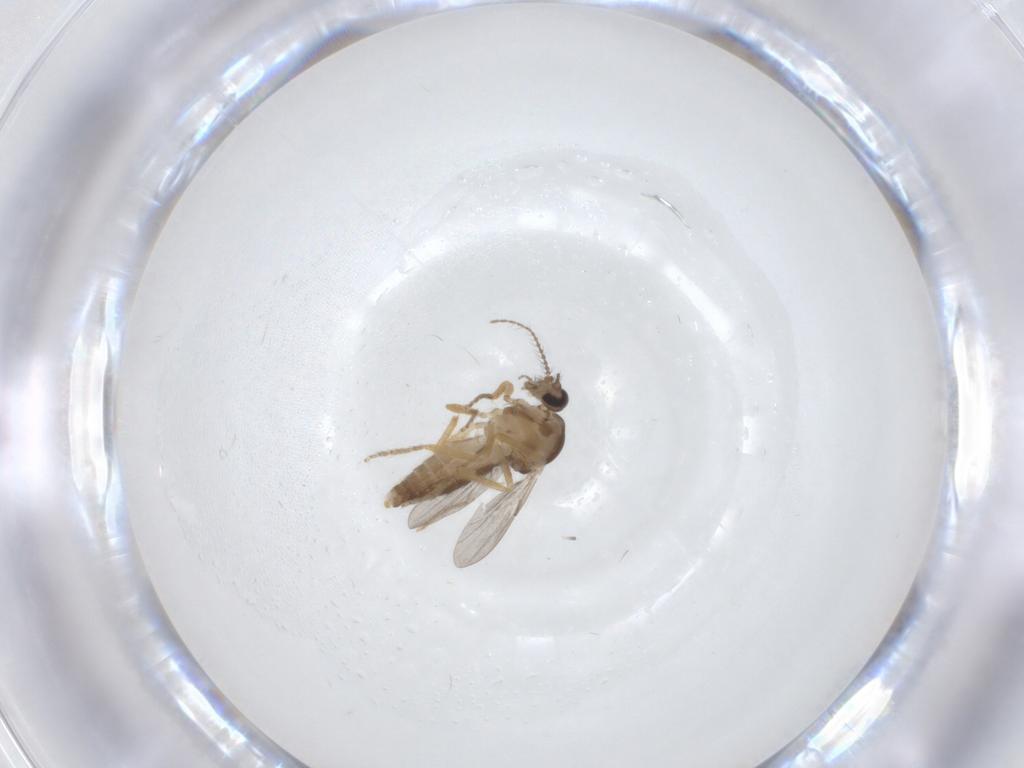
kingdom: Animalia
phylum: Arthropoda
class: Insecta
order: Diptera
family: Ceratopogonidae
